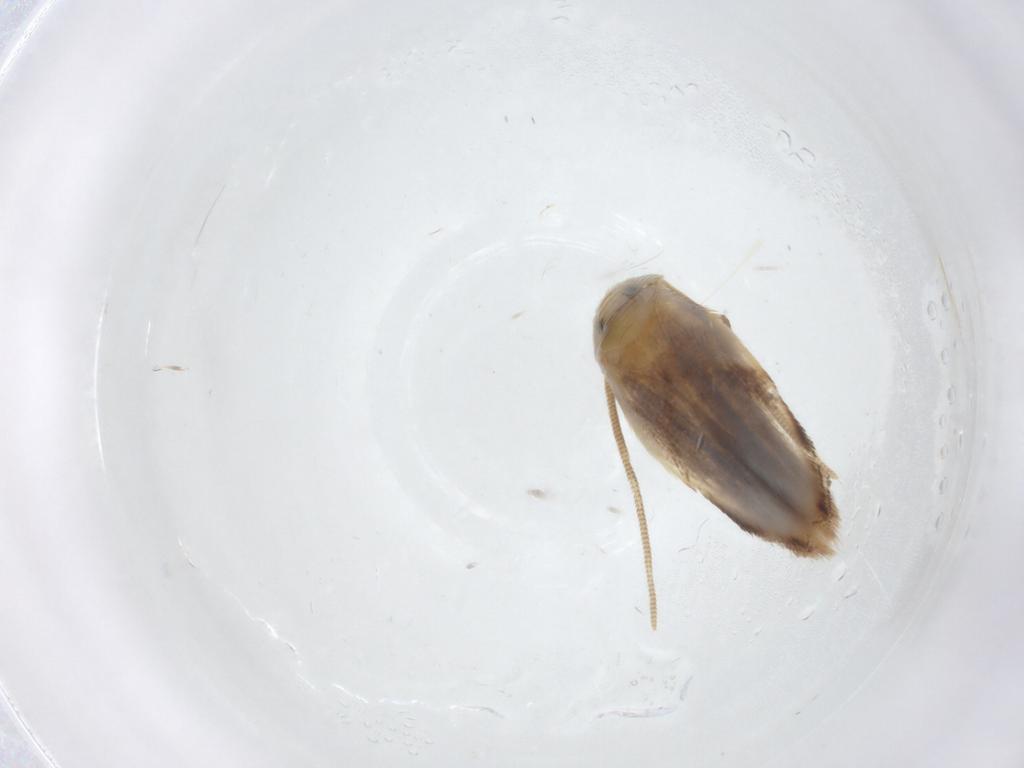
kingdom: Animalia
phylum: Arthropoda
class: Insecta
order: Lepidoptera
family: Opostegidae
